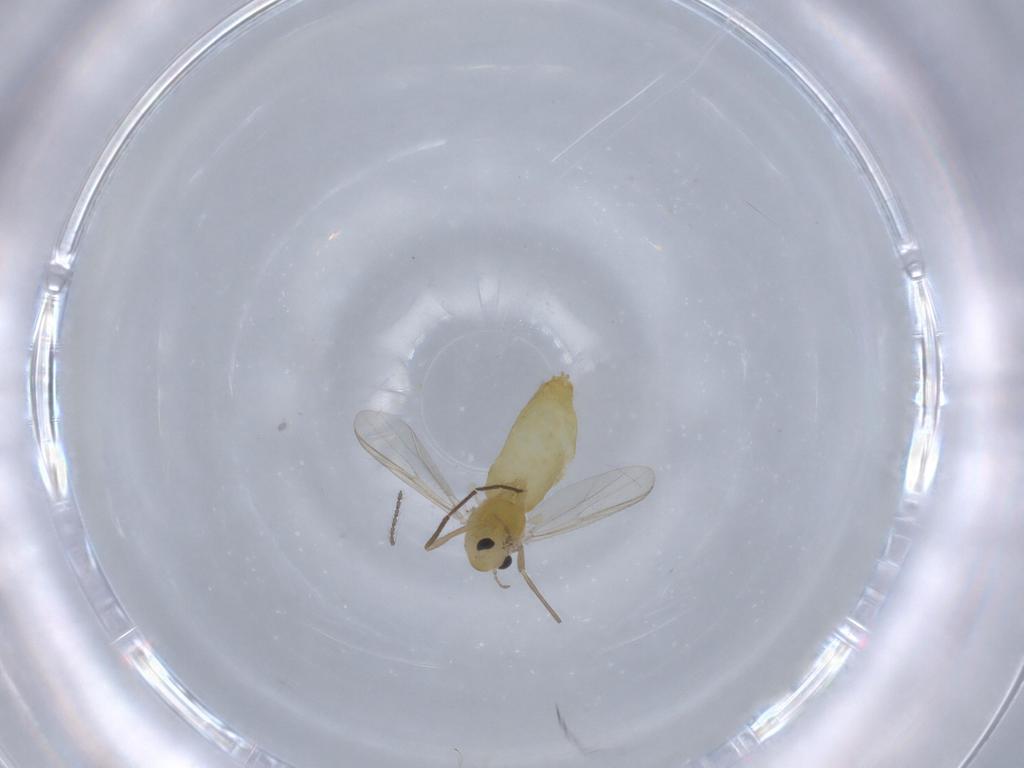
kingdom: Animalia
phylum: Arthropoda
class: Insecta
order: Diptera
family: Chironomidae
